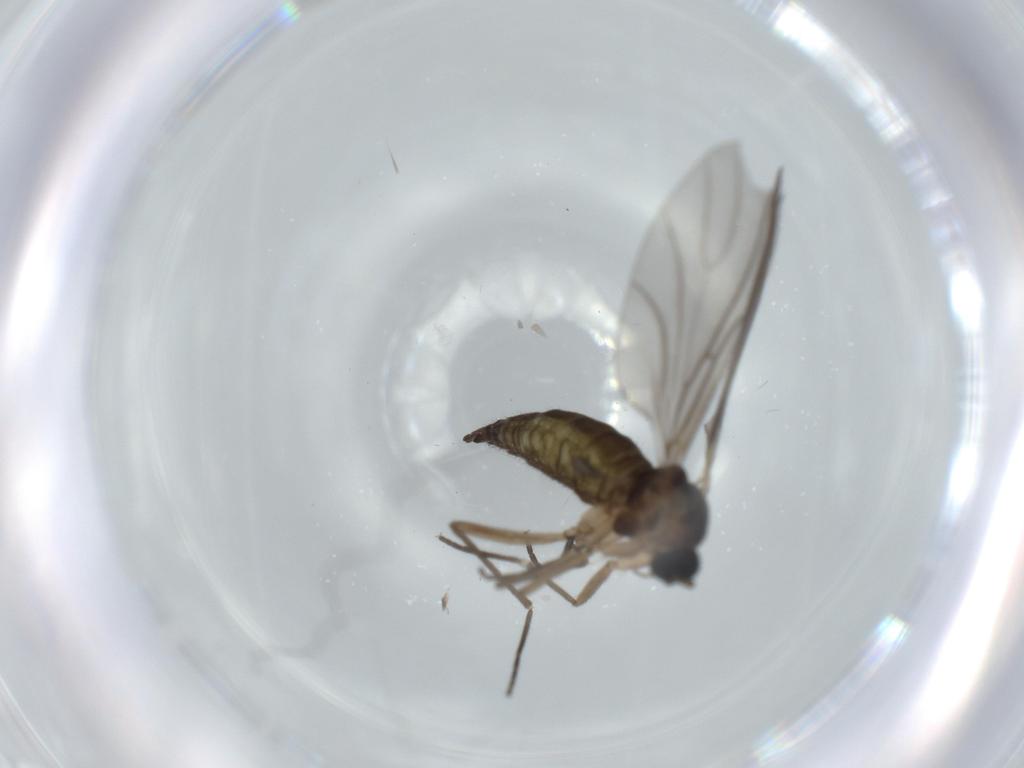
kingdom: Animalia
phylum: Arthropoda
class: Insecta
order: Diptera
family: Sciaridae
